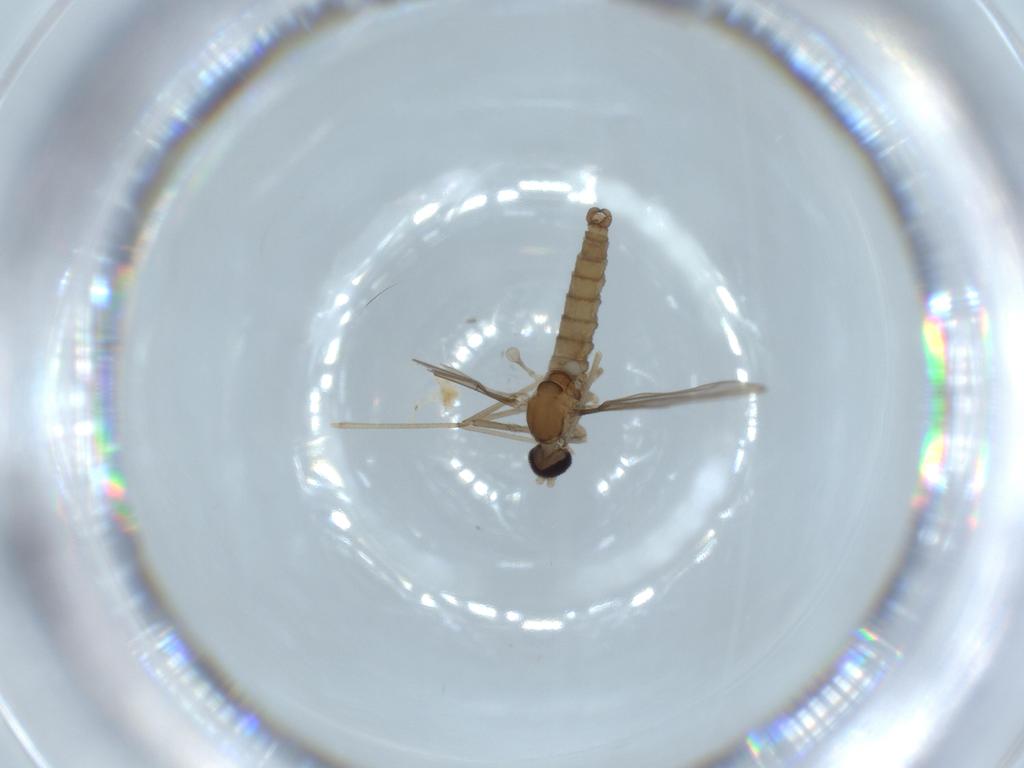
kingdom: Animalia
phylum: Arthropoda
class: Insecta
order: Diptera
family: Cecidomyiidae
